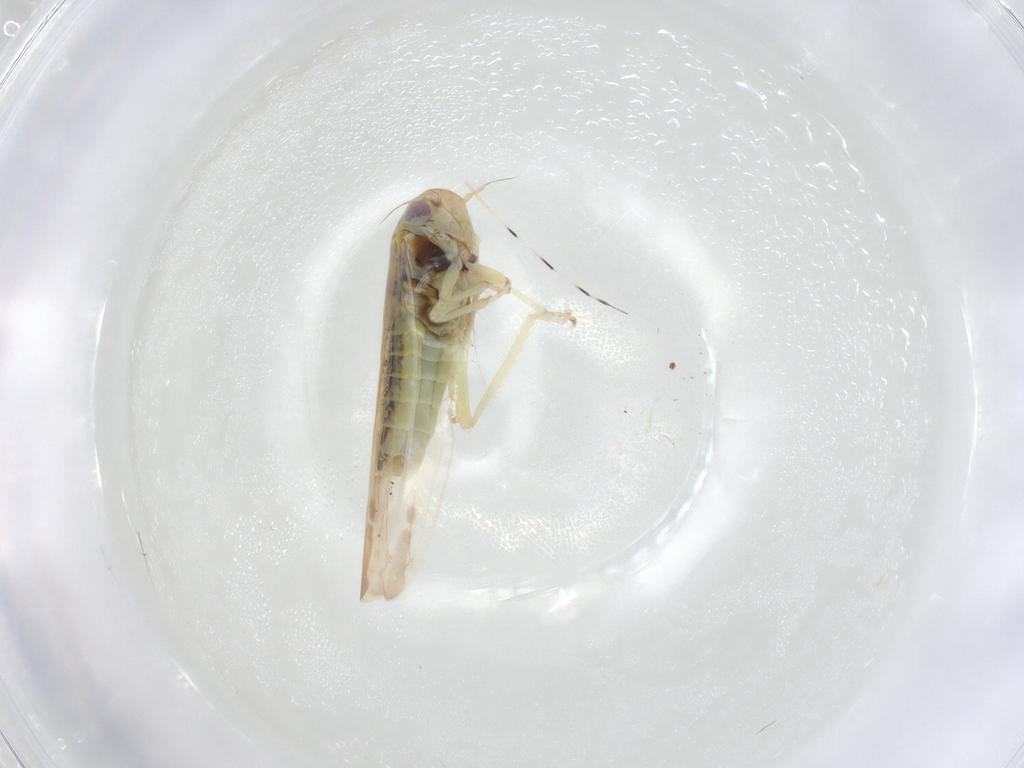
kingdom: Animalia
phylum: Arthropoda
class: Insecta
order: Hemiptera
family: Cicadellidae
